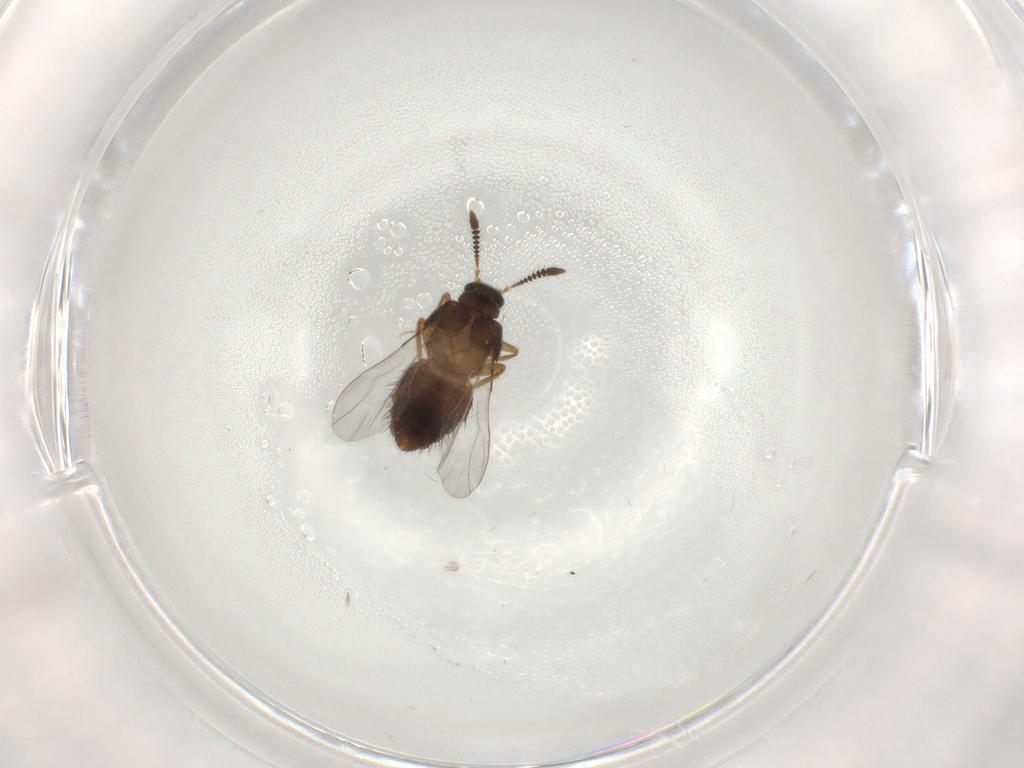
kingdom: Animalia
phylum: Arthropoda
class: Insecta
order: Coleoptera
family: Staphylinidae
